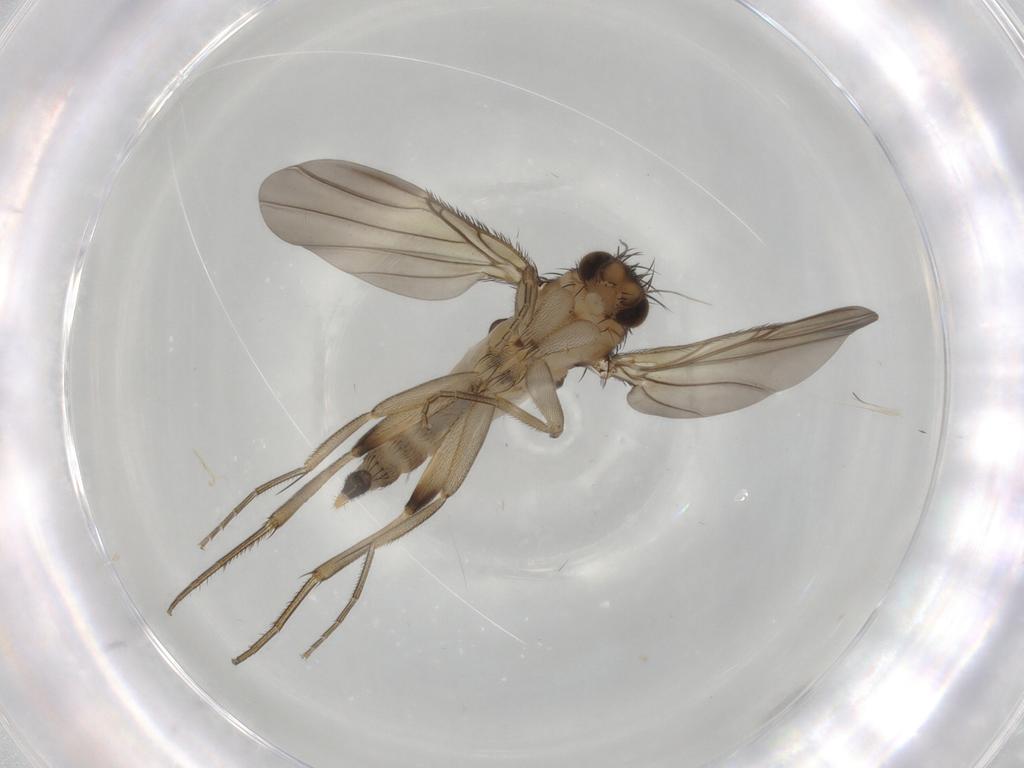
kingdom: Animalia
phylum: Arthropoda
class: Insecta
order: Diptera
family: Phoridae
